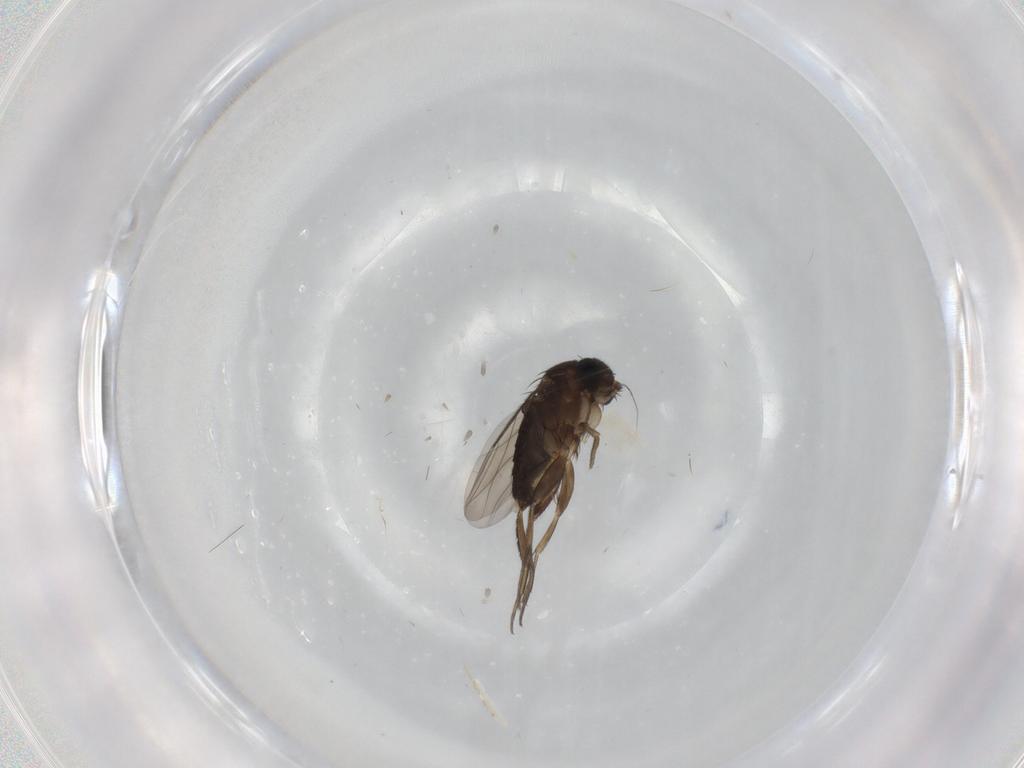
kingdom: Animalia
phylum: Arthropoda
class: Insecta
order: Diptera
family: Phoridae
